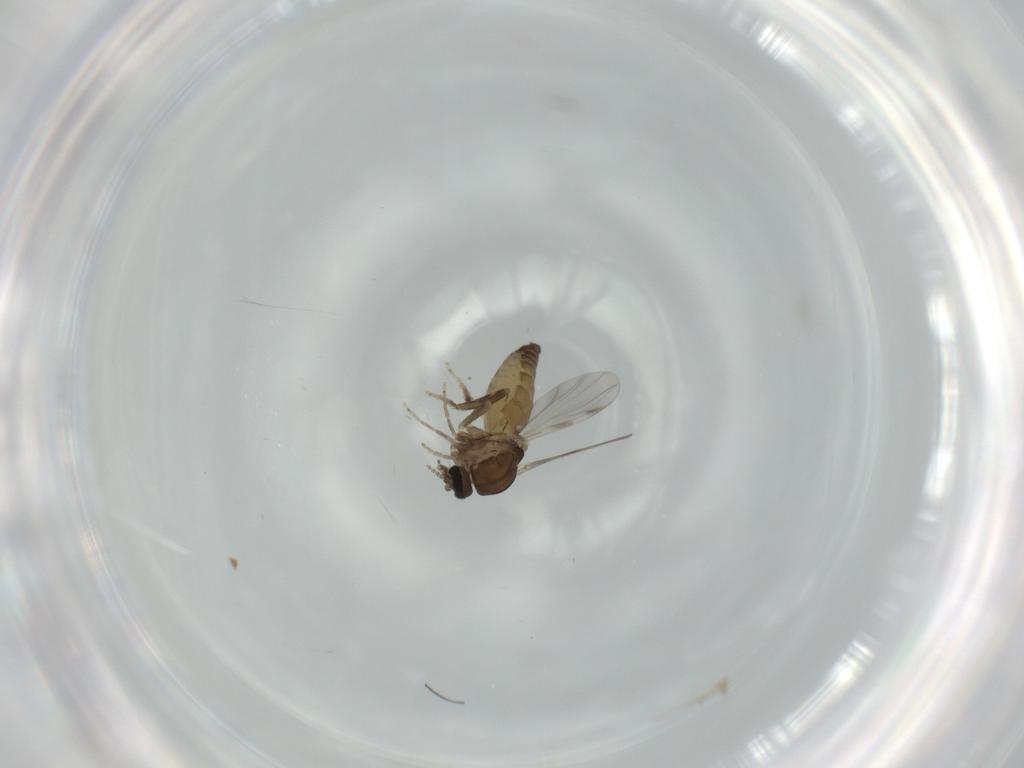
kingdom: Animalia
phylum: Arthropoda
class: Insecta
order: Diptera
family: Ceratopogonidae
